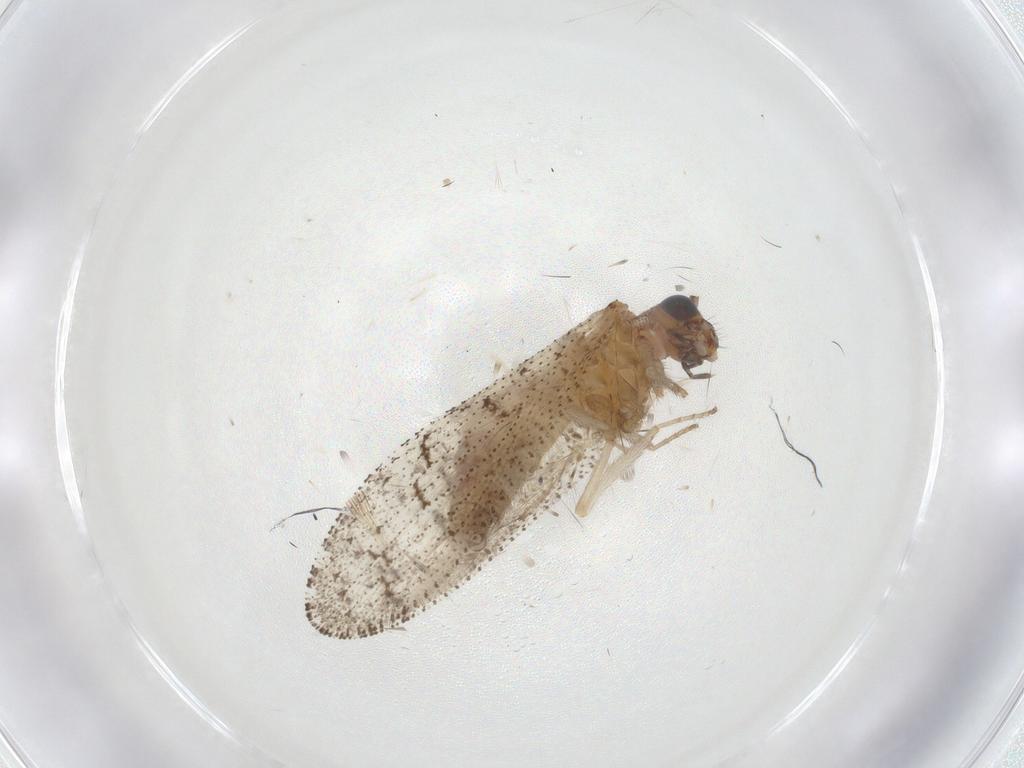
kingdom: Animalia
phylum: Arthropoda
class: Insecta
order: Neuroptera
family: Hemerobiidae
